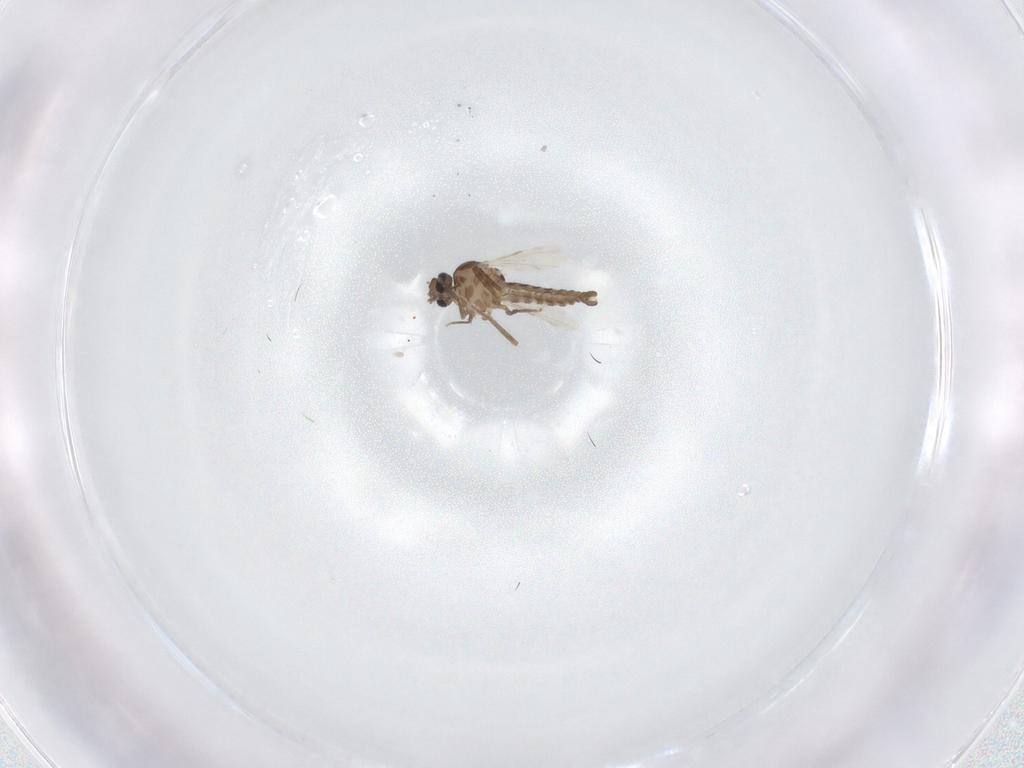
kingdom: Animalia
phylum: Arthropoda
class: Insecta
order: Diptera
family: Ceratopogonidae
